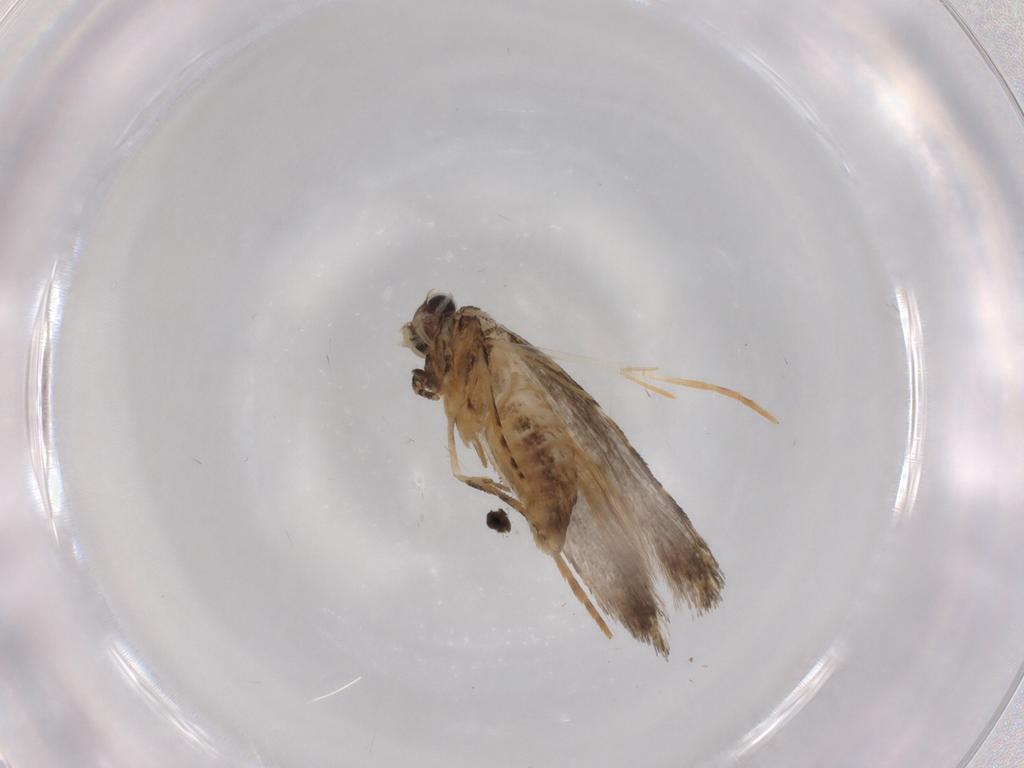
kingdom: Animalia
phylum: Arthropoda
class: Insecta
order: Lepidoptera
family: Tineidae
